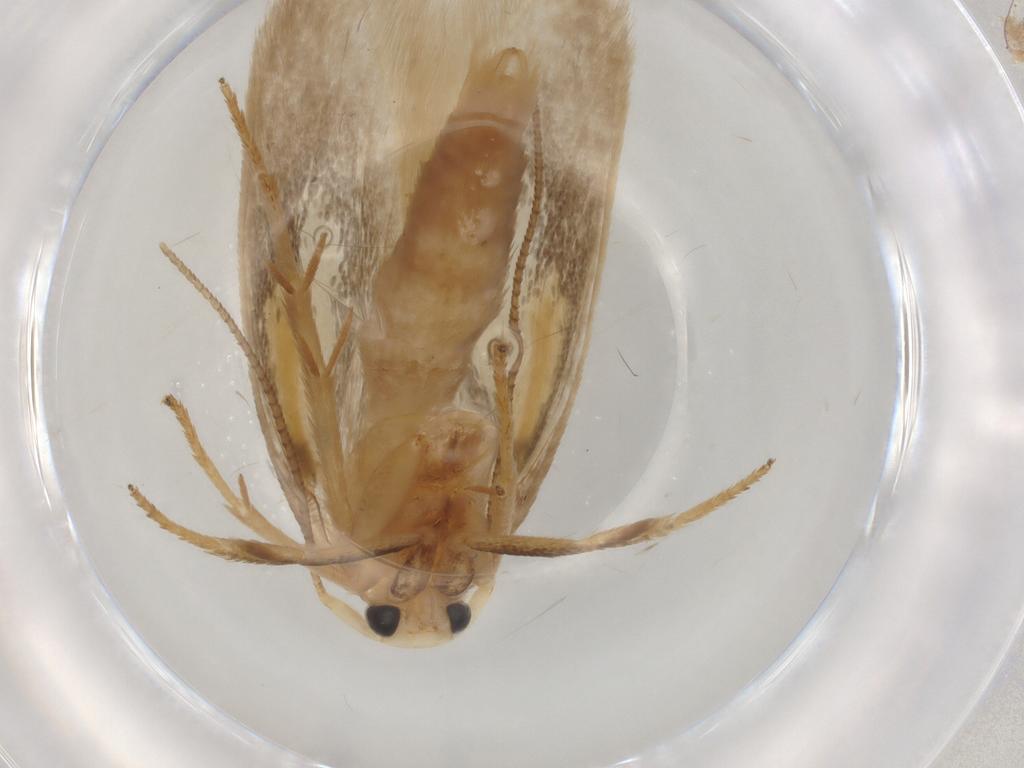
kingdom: Animalia
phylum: Arthropoda
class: Insecta
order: Lepidoptera
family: Geometridae
